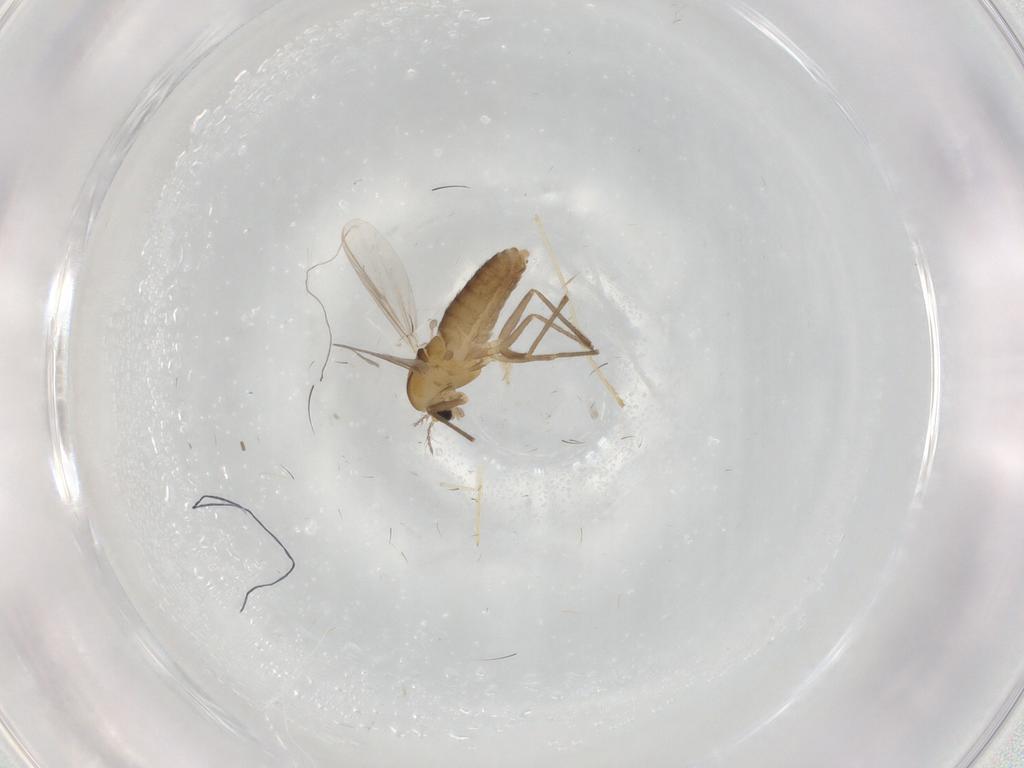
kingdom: Animalia
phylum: Arthropoda
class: Insecta
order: Diptera
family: Chironomidae
